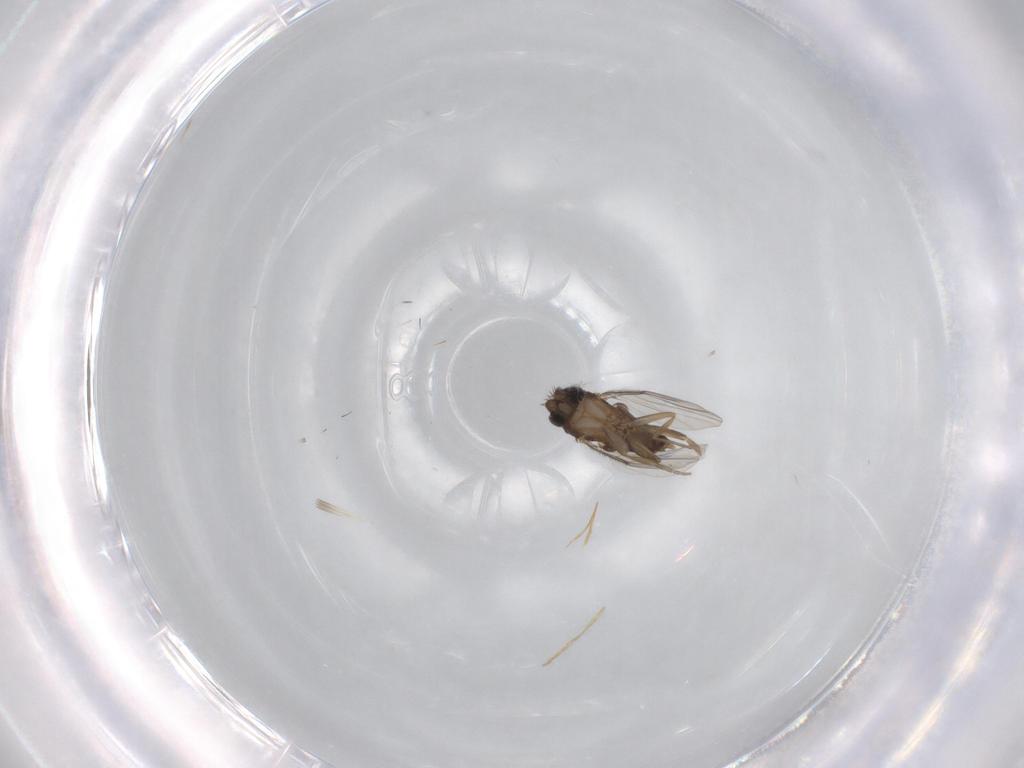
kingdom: Animalia
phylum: Arthropoda
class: Insecta
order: Diptera
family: Phoridae
